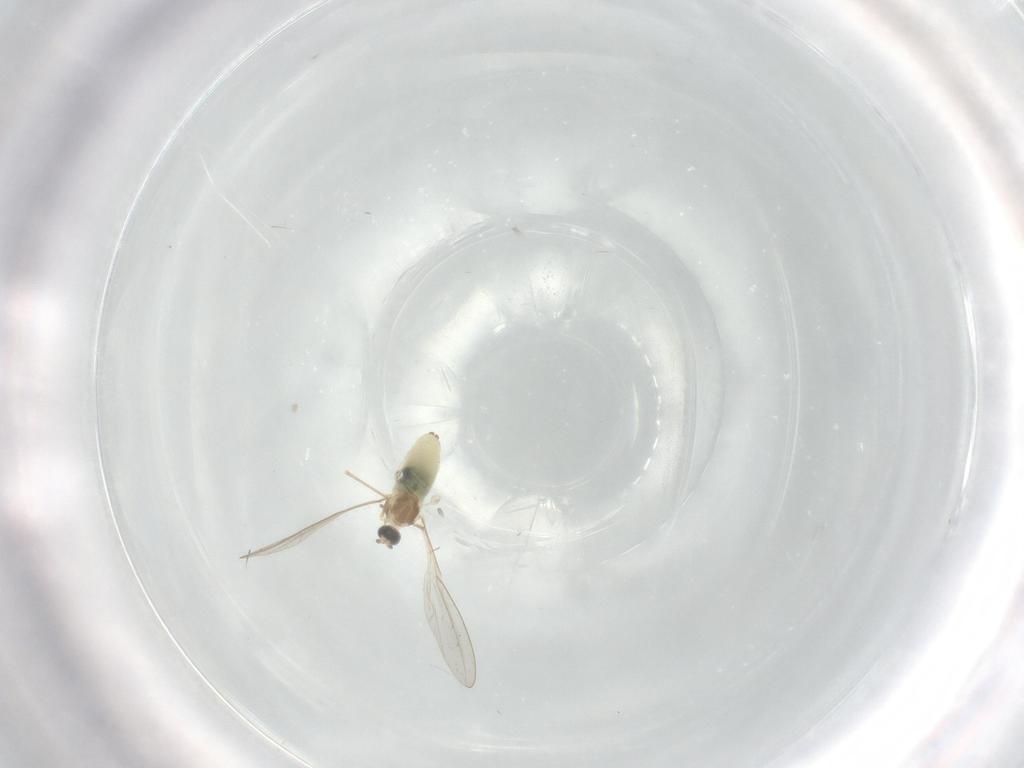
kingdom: Animalia
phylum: Arthropoda
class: Insecta
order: Diptera
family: Cecidomyiidae
